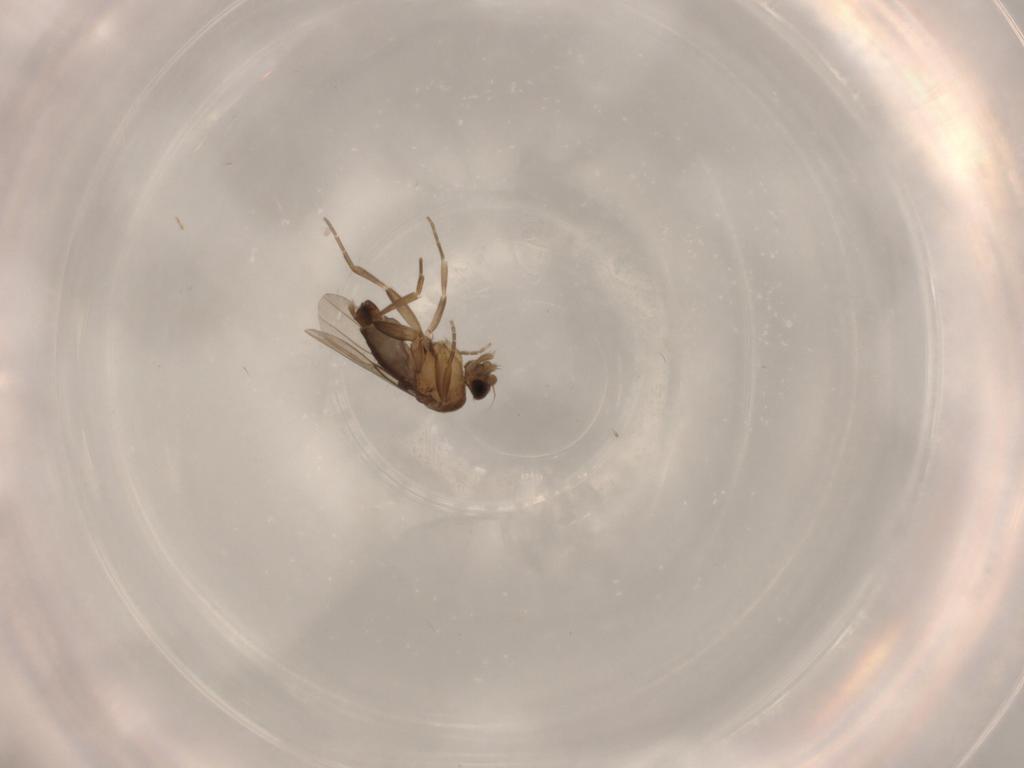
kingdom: Animalia
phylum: Arthropoda
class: Insecta
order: Diptera
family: Phoridae
